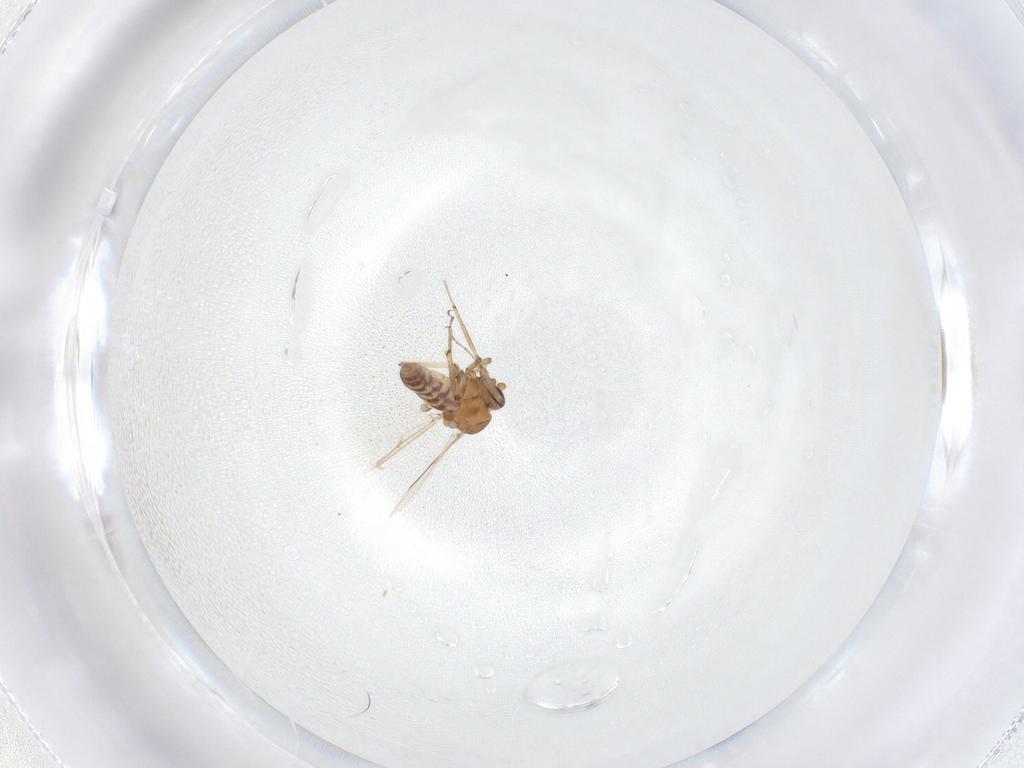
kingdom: Animalia
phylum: Arthropoda
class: Insecta
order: Diptera
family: Ceratopogonidae
